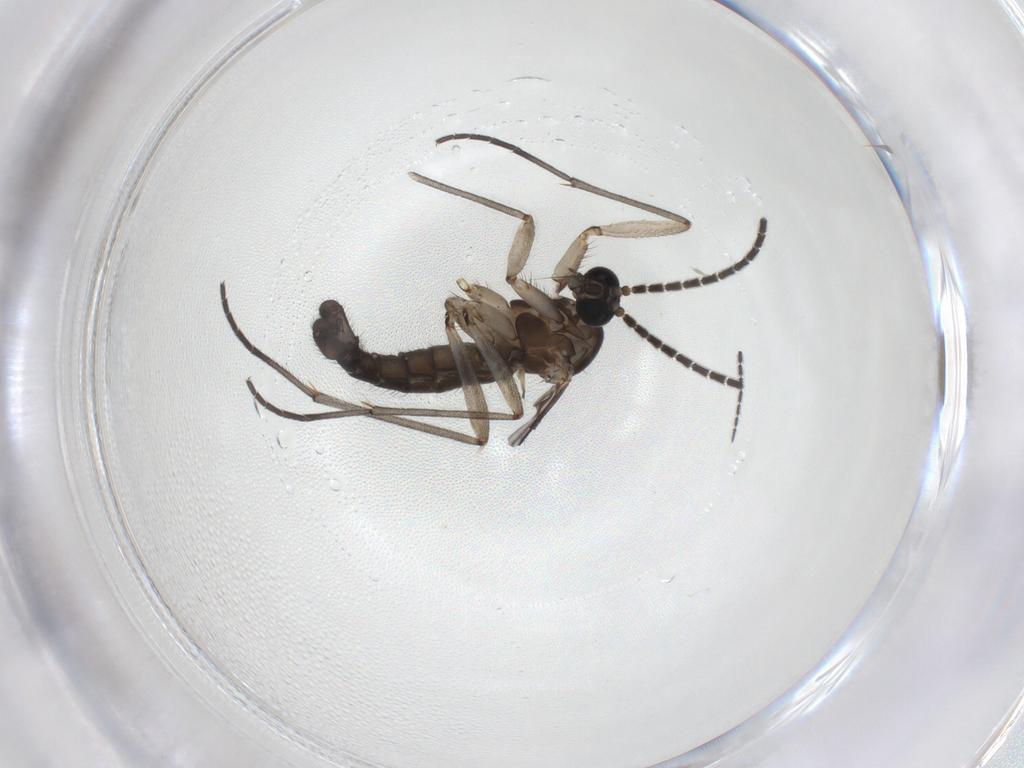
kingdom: Animalia
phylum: Arthropoda
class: Insecta
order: Diptera
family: Sciaridae
